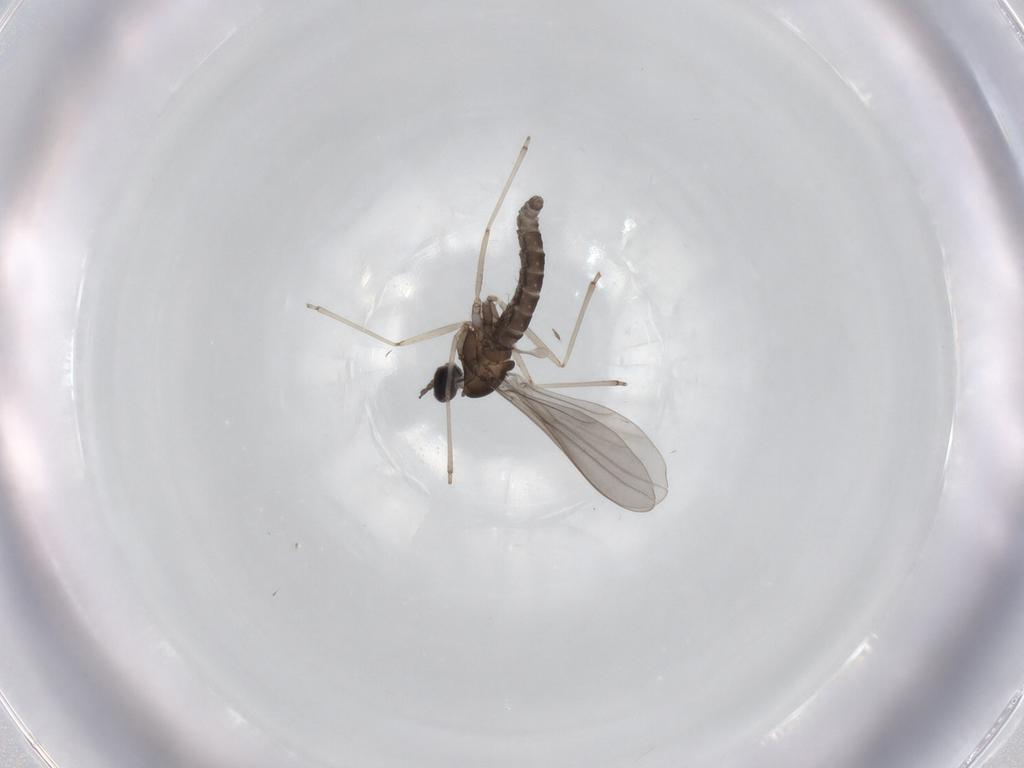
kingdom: Animalia
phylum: Arthropoda
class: Insecta
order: Diptera
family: Cecidomyiidae
